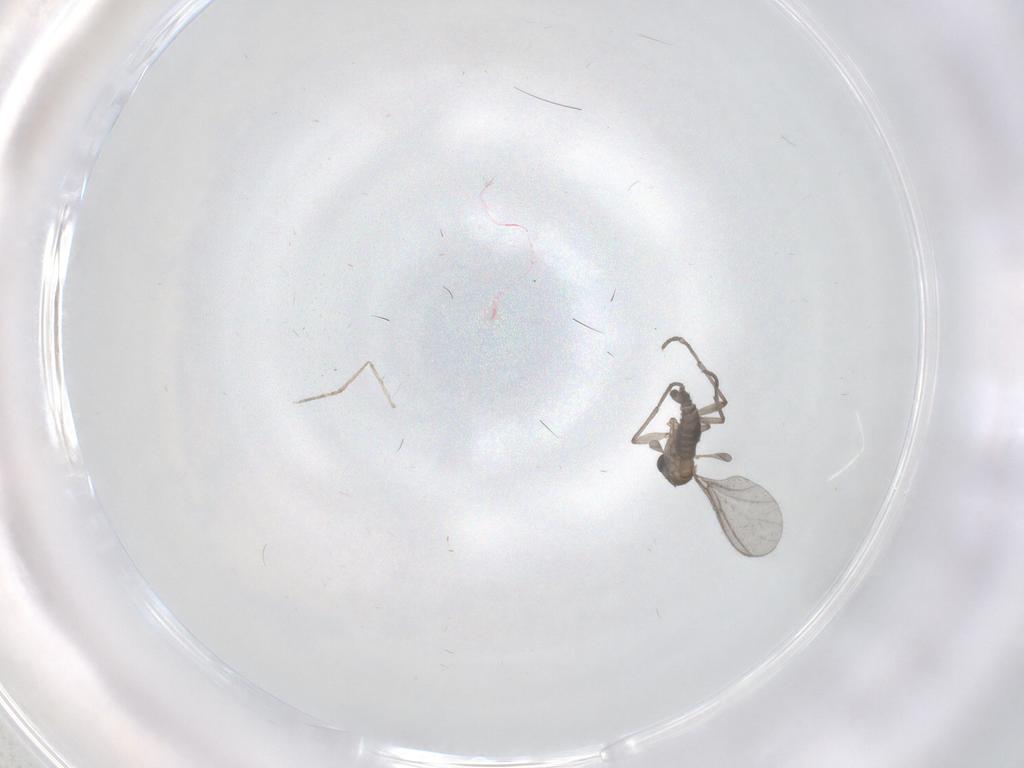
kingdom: Animalia
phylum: Arthropoda
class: Insecta
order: Diptera
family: Sciaridae
